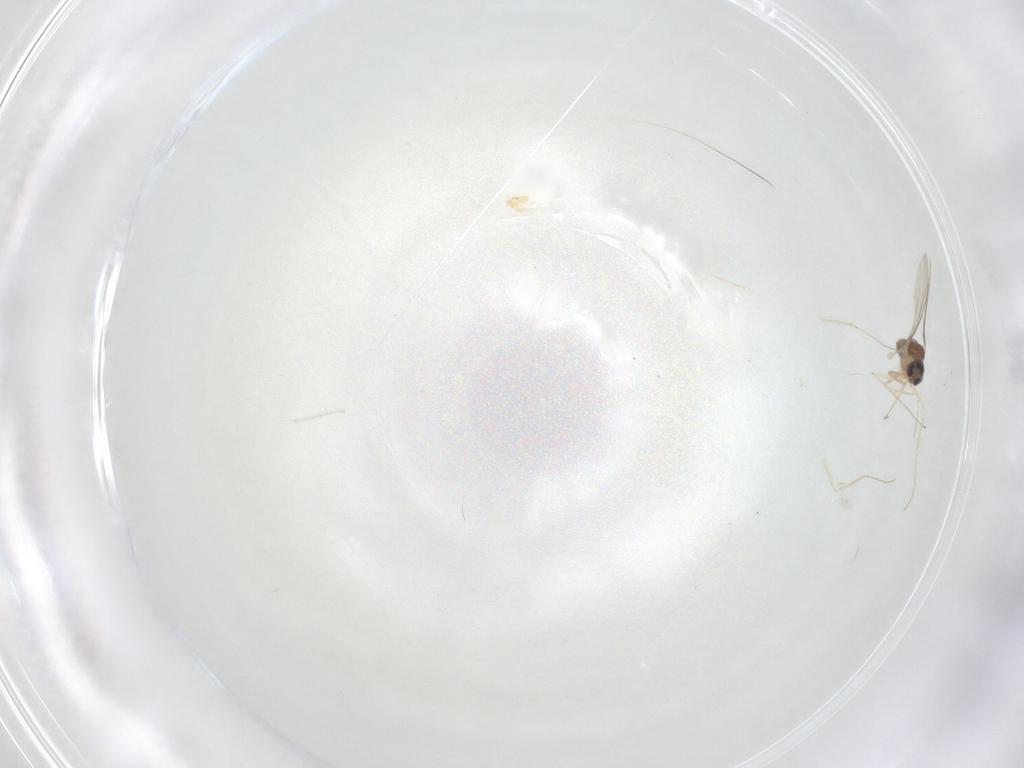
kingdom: Animalia
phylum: Arthropoda
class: Insecta
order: Diptera
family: Cecidomyiidae
